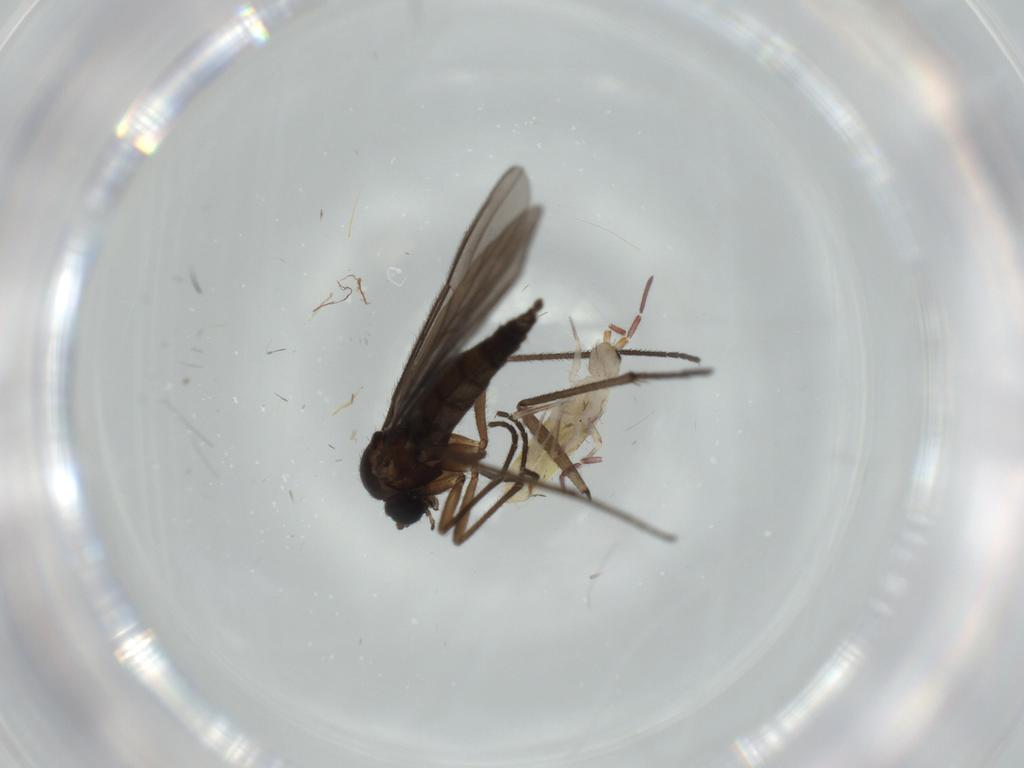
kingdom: Animalia
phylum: Arthropoda
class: Collembola
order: Entomobryomorpha
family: Entomobryidae
